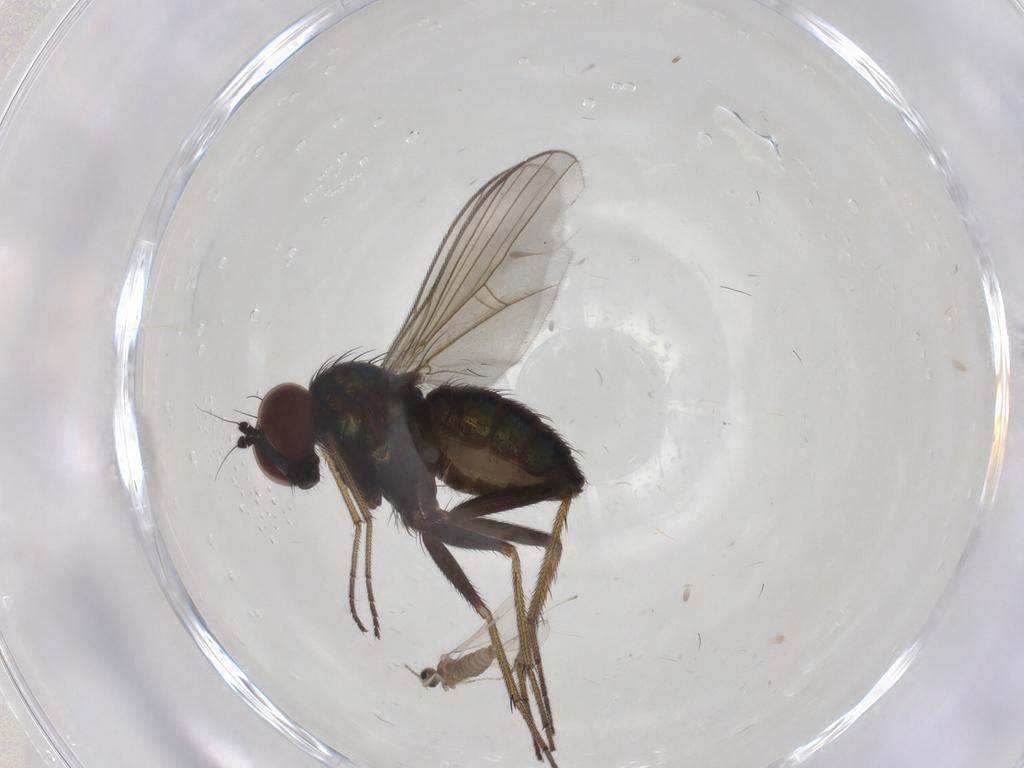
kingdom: Animalia
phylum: Arthropoda
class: Insecta
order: Diptera
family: Dolichopodidae
